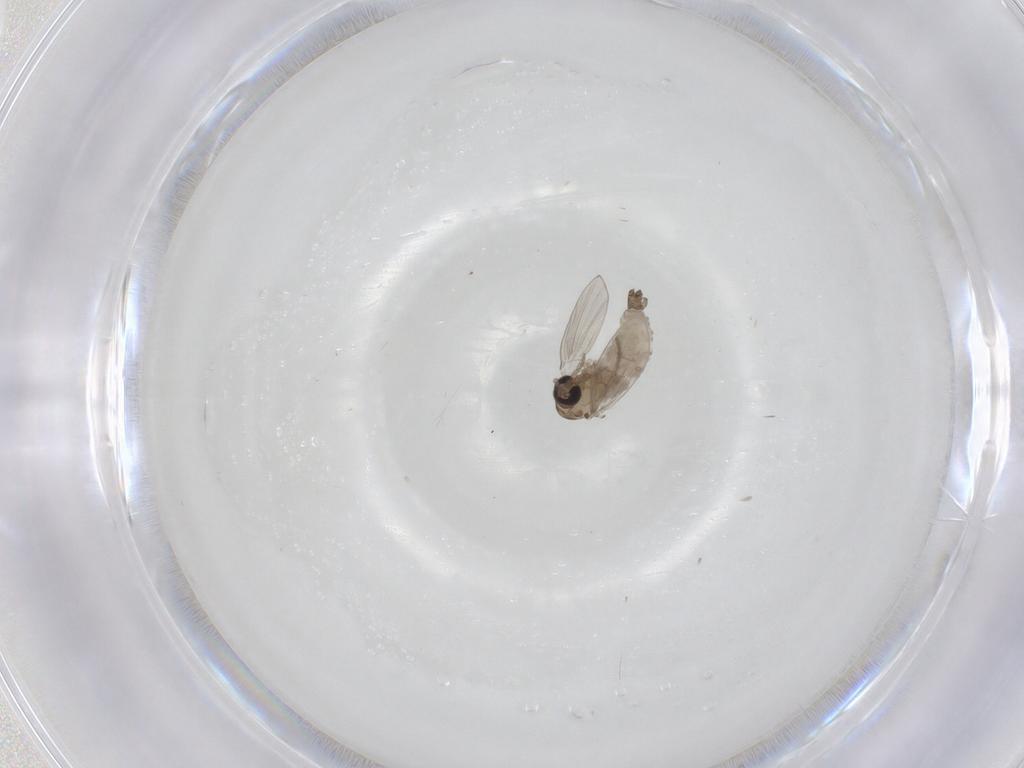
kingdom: Animalia
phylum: Arthropoda
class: Insecta
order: Diptera
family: Psychodidae
